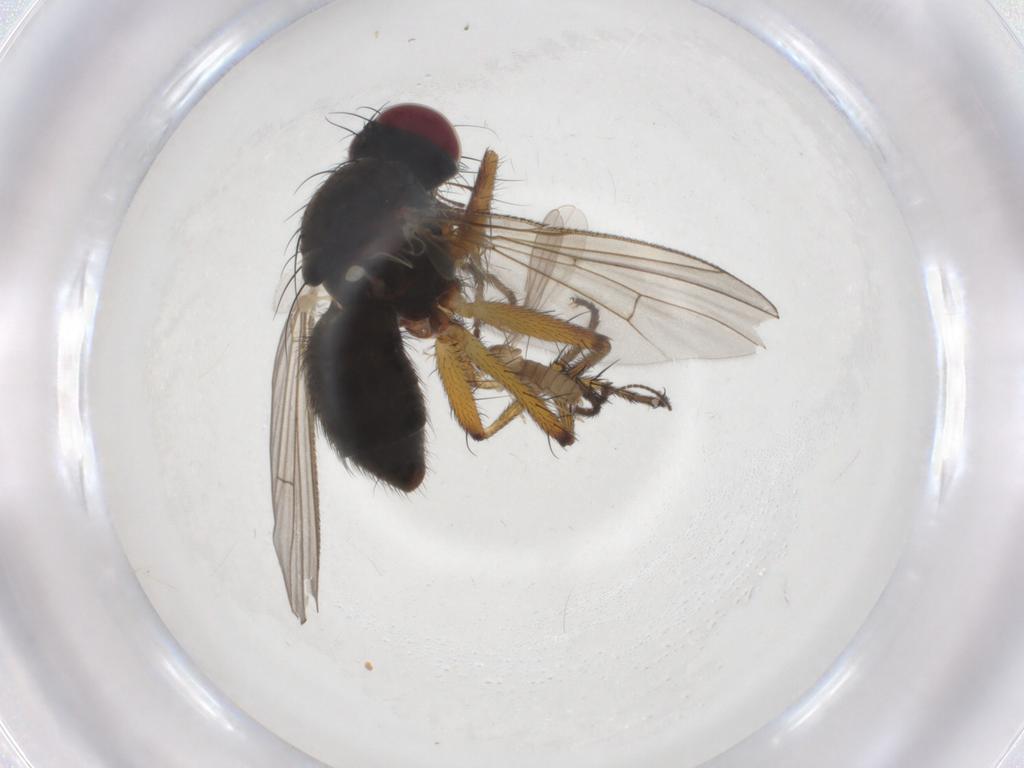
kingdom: Animalia
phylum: Arthropoda
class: Insecta
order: Diptera
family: Muscidae
